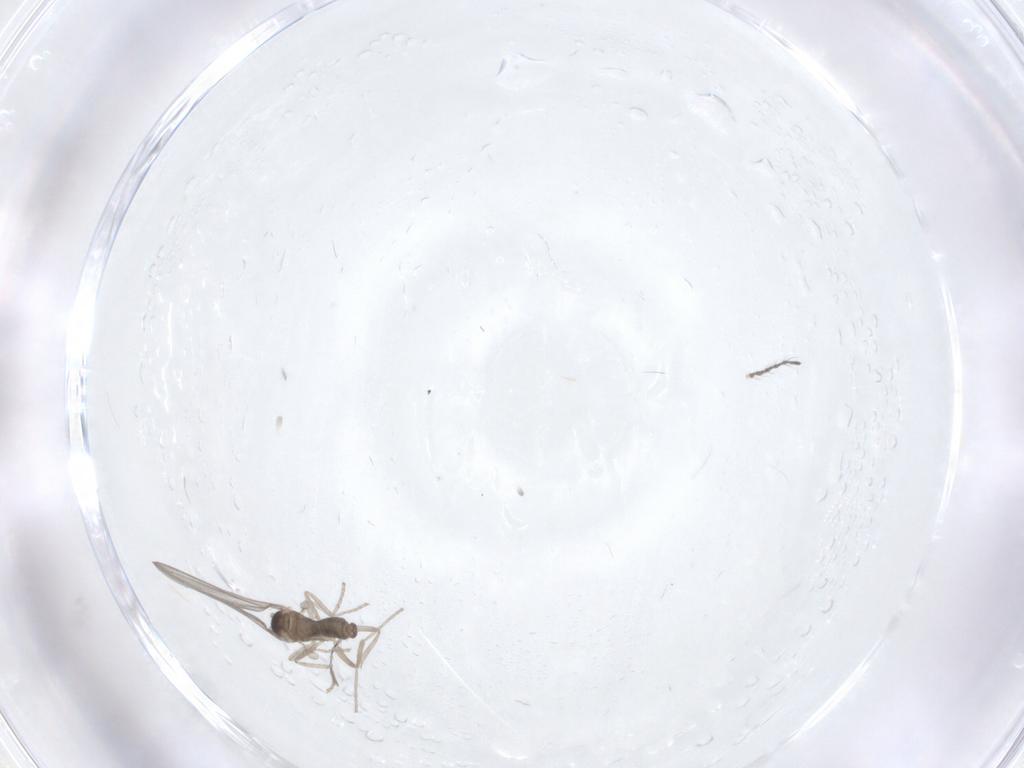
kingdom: Animalia
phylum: Arthropoda
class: Insecta
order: Diptera
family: Cecidomyiidae
